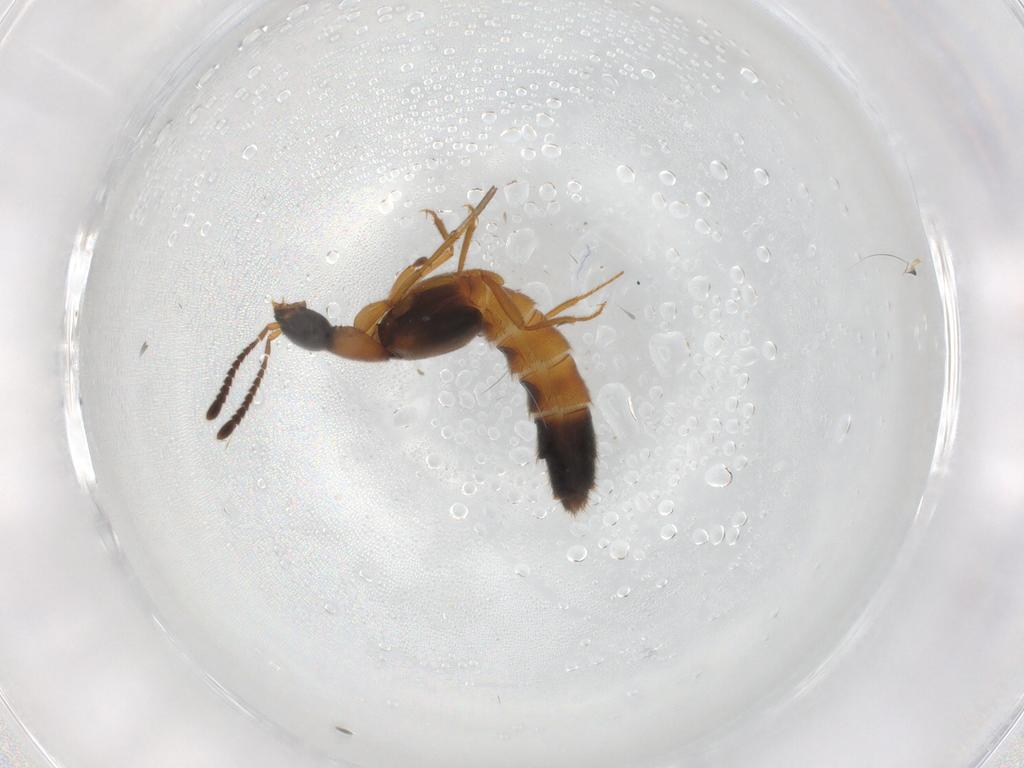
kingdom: Animalia
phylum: Arthropoda
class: Insecta
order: Coleoptera
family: Staphylinidae
